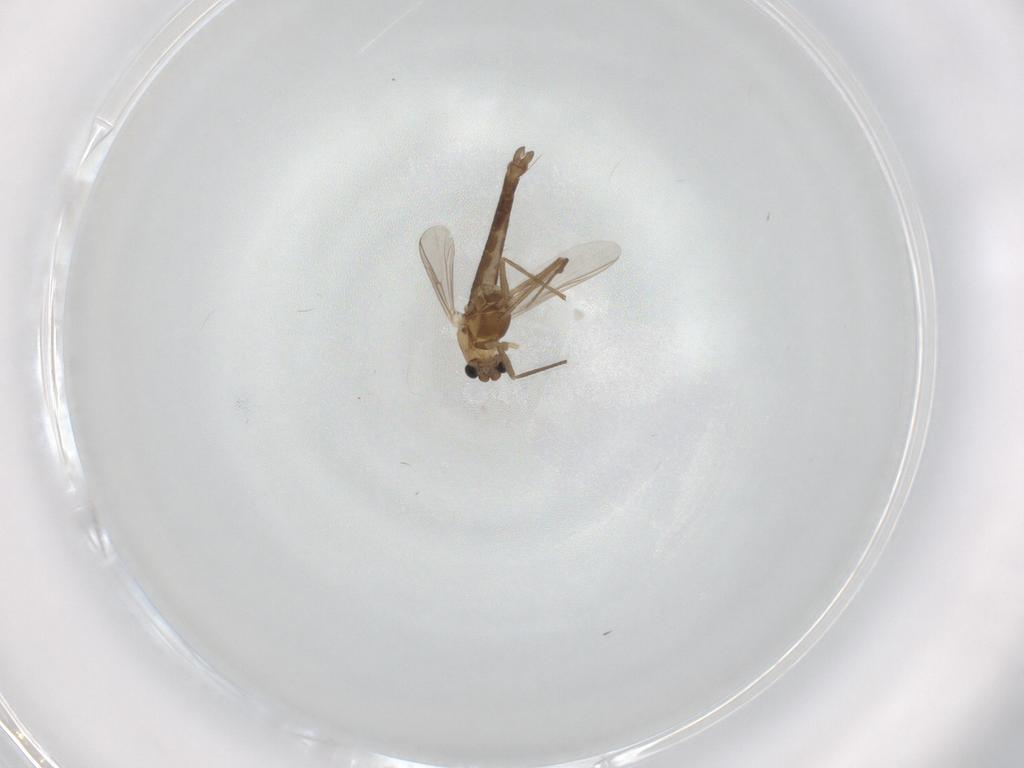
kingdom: Animalia
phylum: Arthropoda
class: Insecta
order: Diptera
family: Chironomidae
